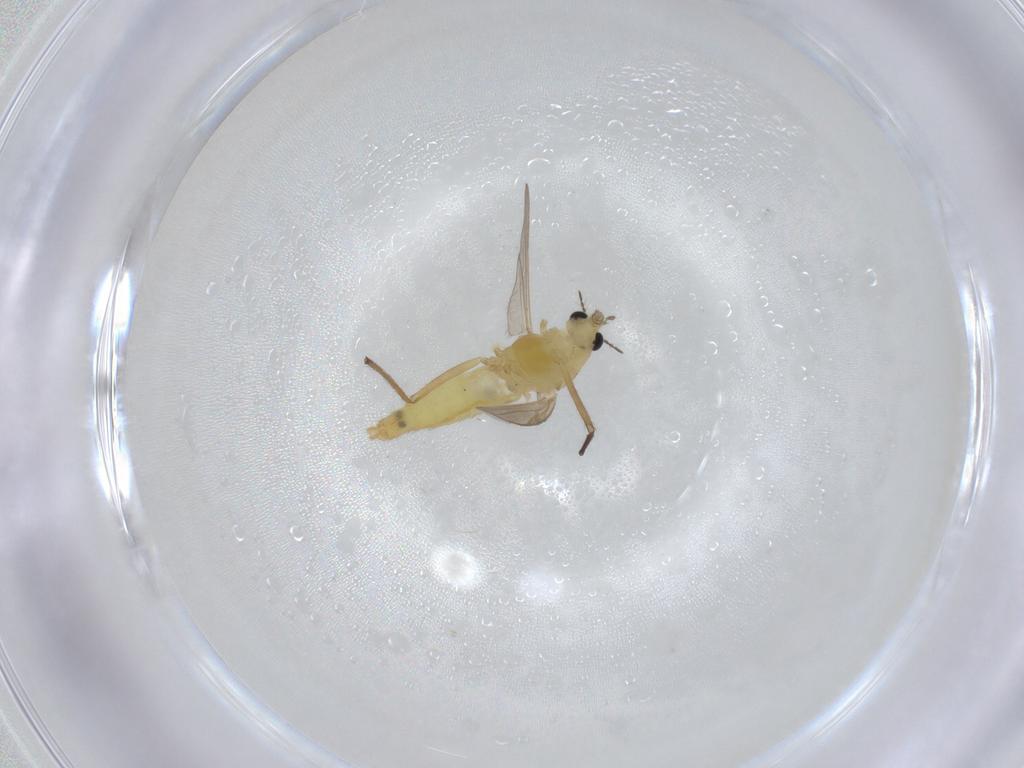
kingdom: Animalia
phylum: Arthropoda
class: Insecta
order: Diptera
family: Chironomidae
